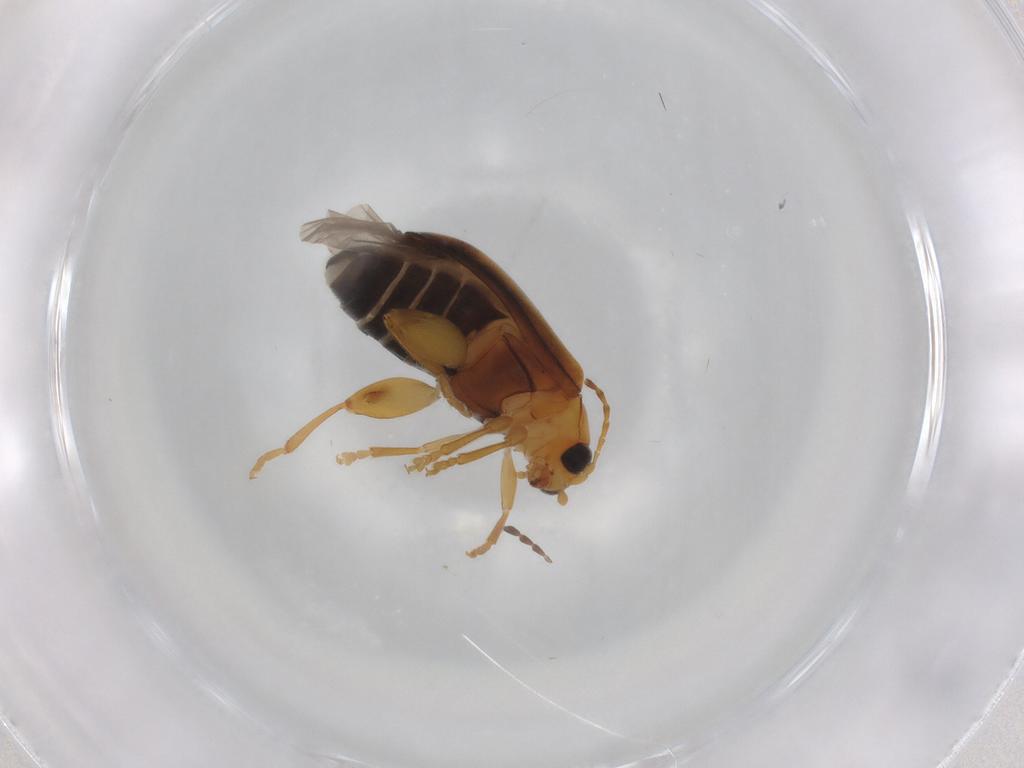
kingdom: Animalia
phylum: Arthropoda
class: Insecta
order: Coleoptera
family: Chrysomelidae
